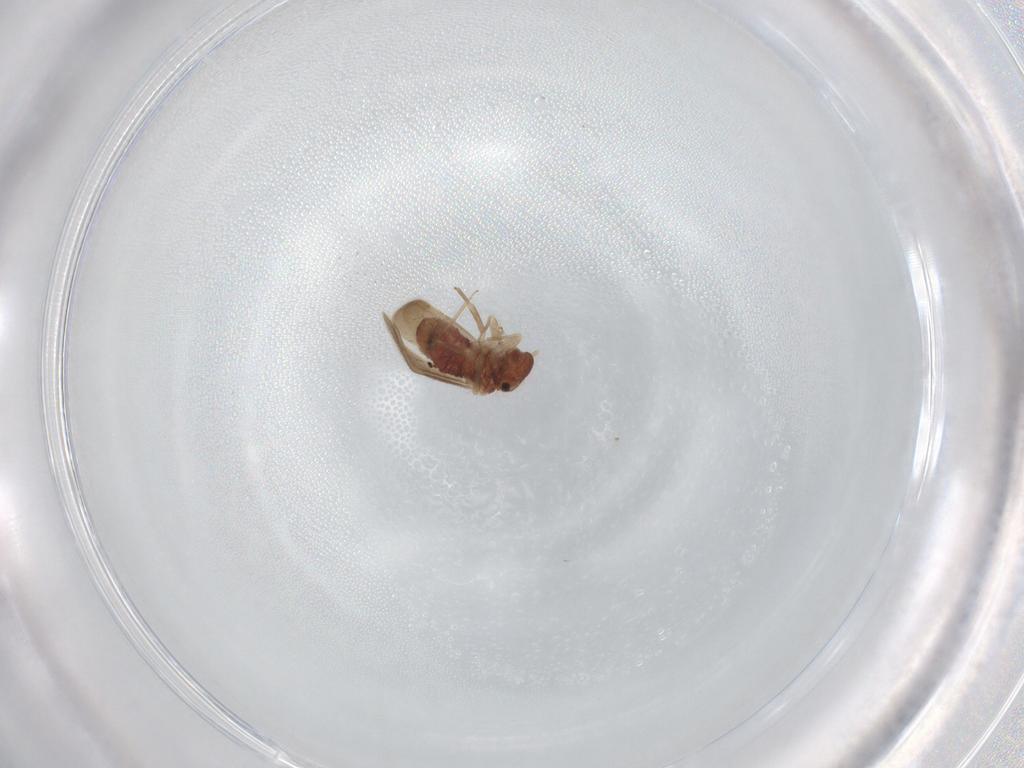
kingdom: Animalia
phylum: Arthropoda
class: Insecta
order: Psocodea
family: Archipsocidae
